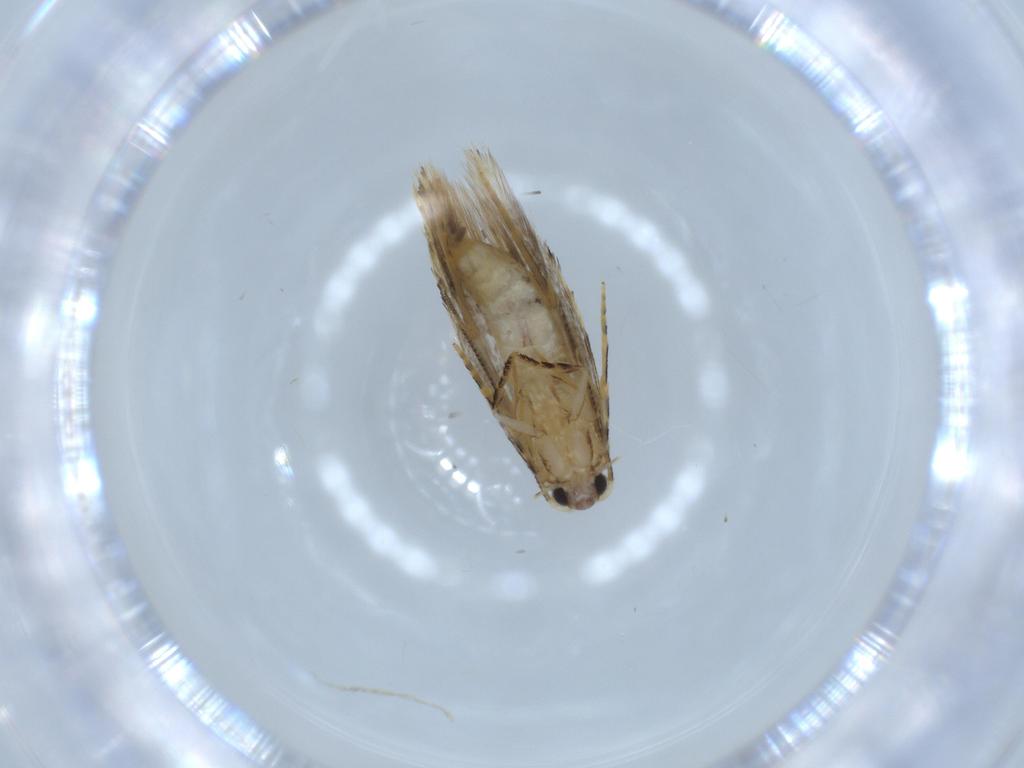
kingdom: Animalia
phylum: Arthropoda
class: Insecta
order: Lepidoptera
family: Tineidae
